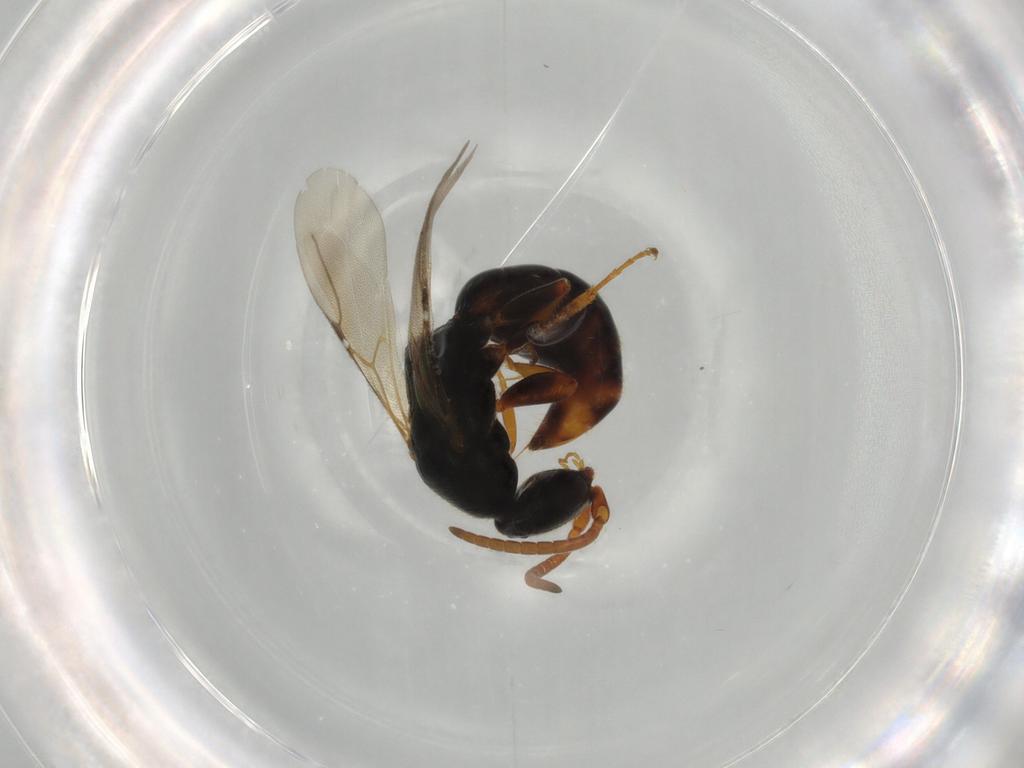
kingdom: Animalia
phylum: Arthropoda
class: Insecta
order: Hymenoptera
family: Bethylidae
